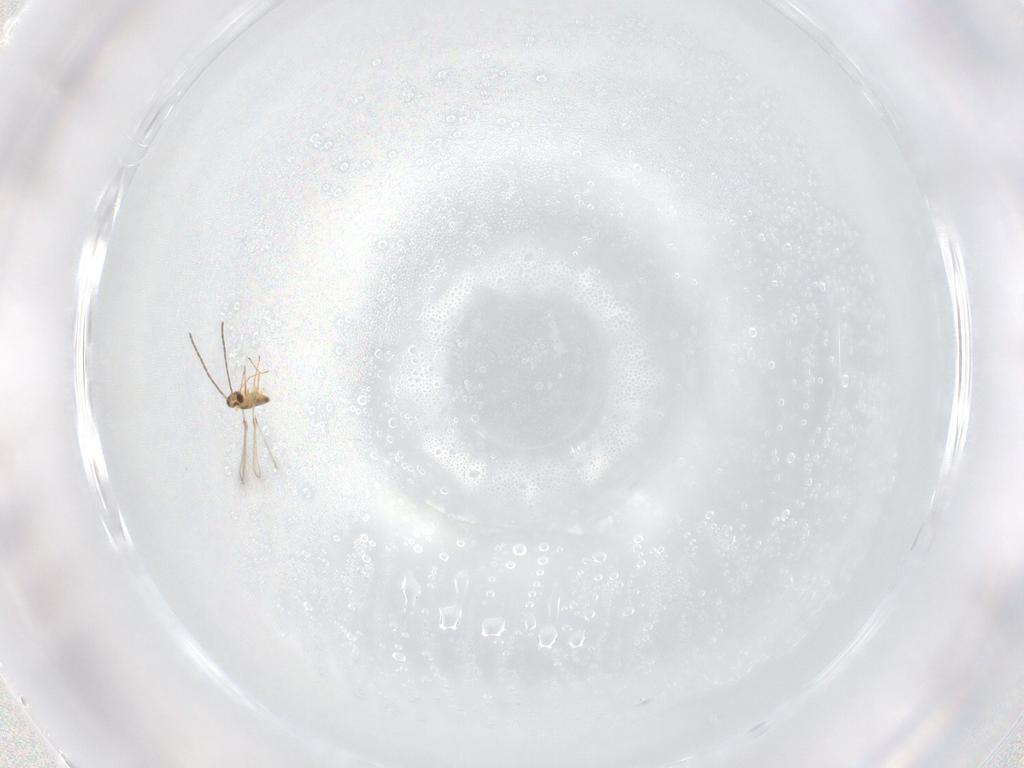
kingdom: Animalia
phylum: Arthropoda
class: Insecta
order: Hymenoptera
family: Mymaridae
